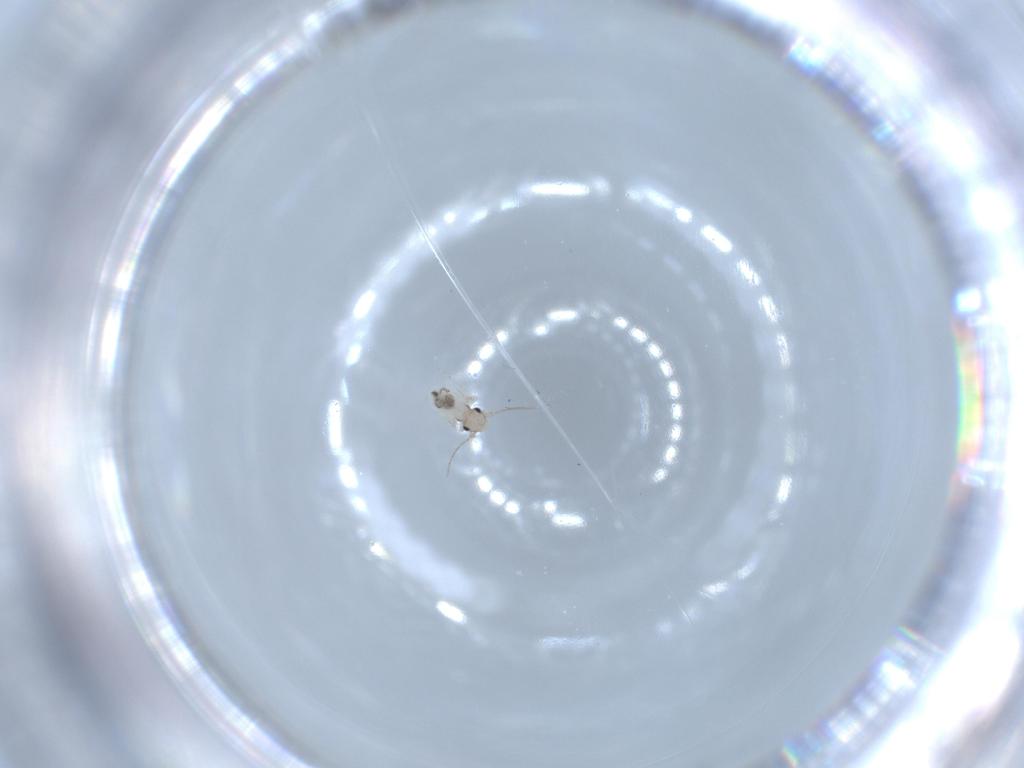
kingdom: Animalia
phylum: Arthropoda
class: Insecta
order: Psocodea
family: Lepidopsocidae
